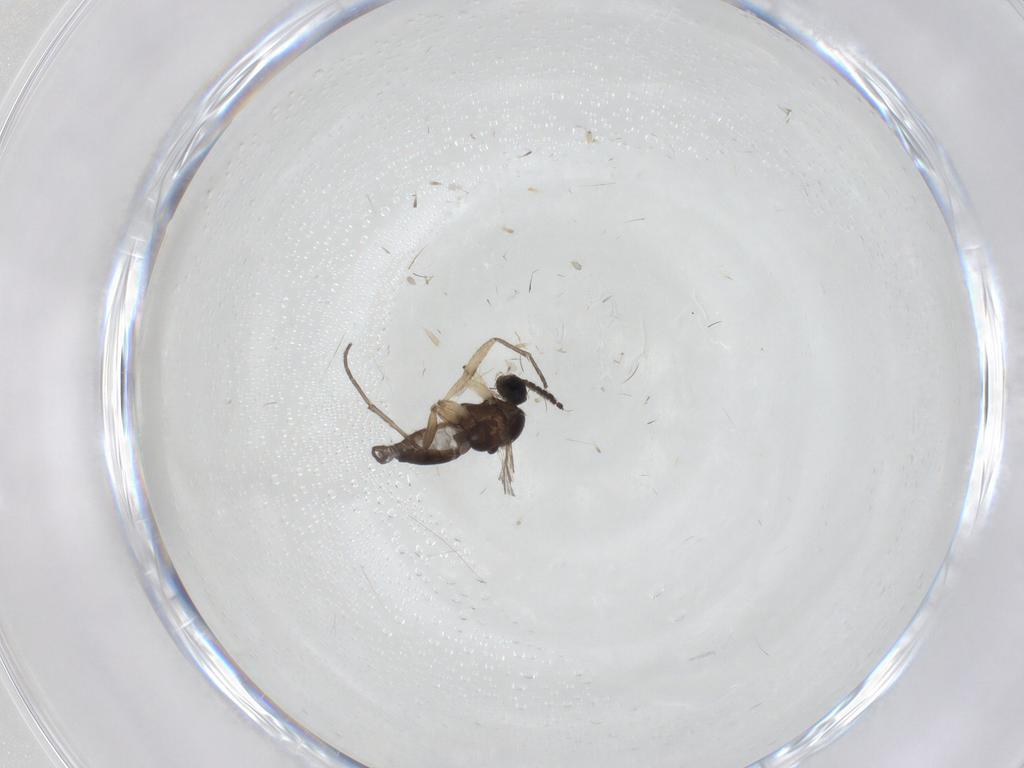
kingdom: Animalia
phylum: Arthropoda
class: Insecta
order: Diptera
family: Sciaridae
